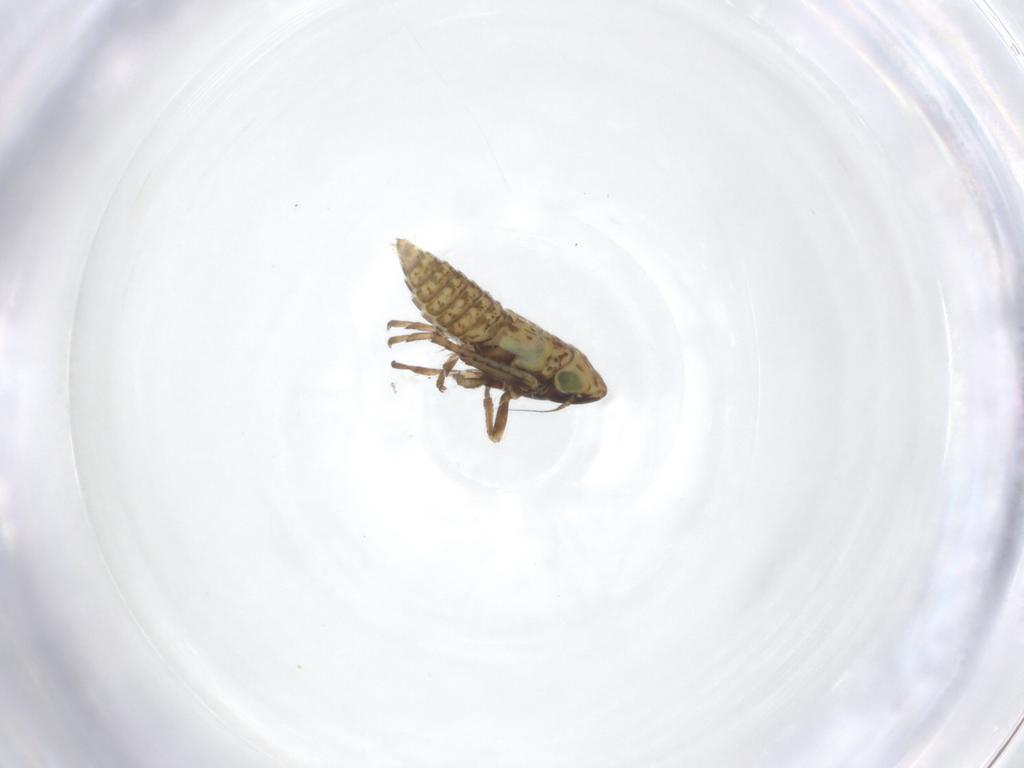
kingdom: Animalia
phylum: Arthropoda
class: Insecta
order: Hemiptera
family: Cicadellidae
